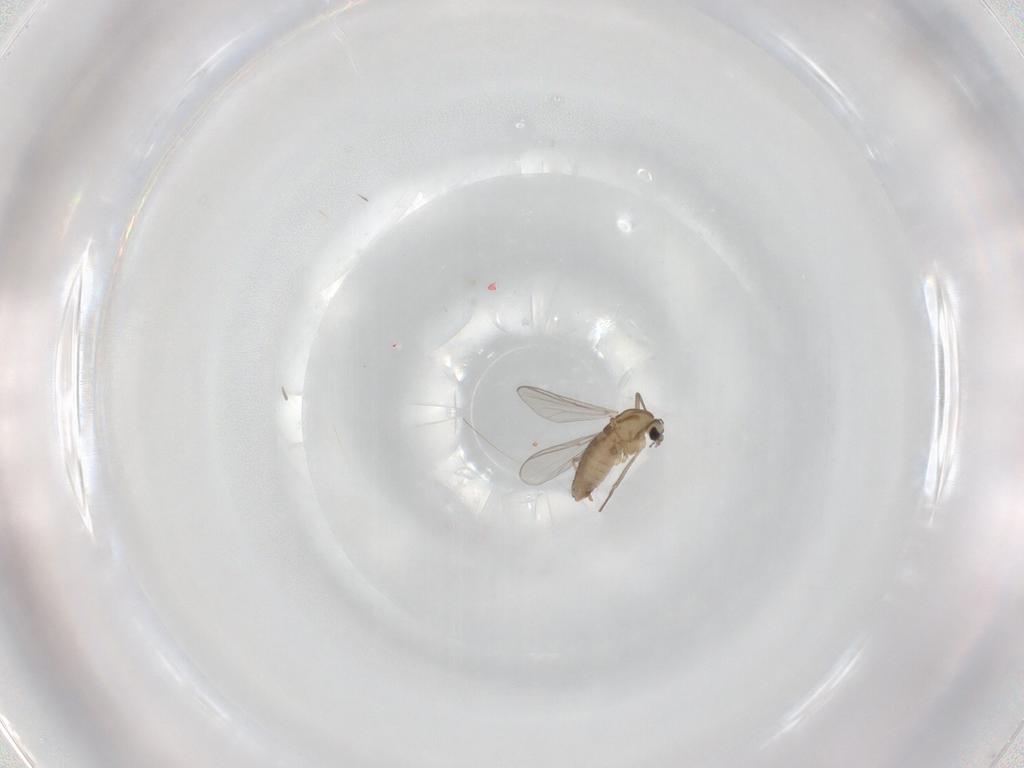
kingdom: Animalia
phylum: Arthropoda
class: Insecta
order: Diptera
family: Chironomidae
